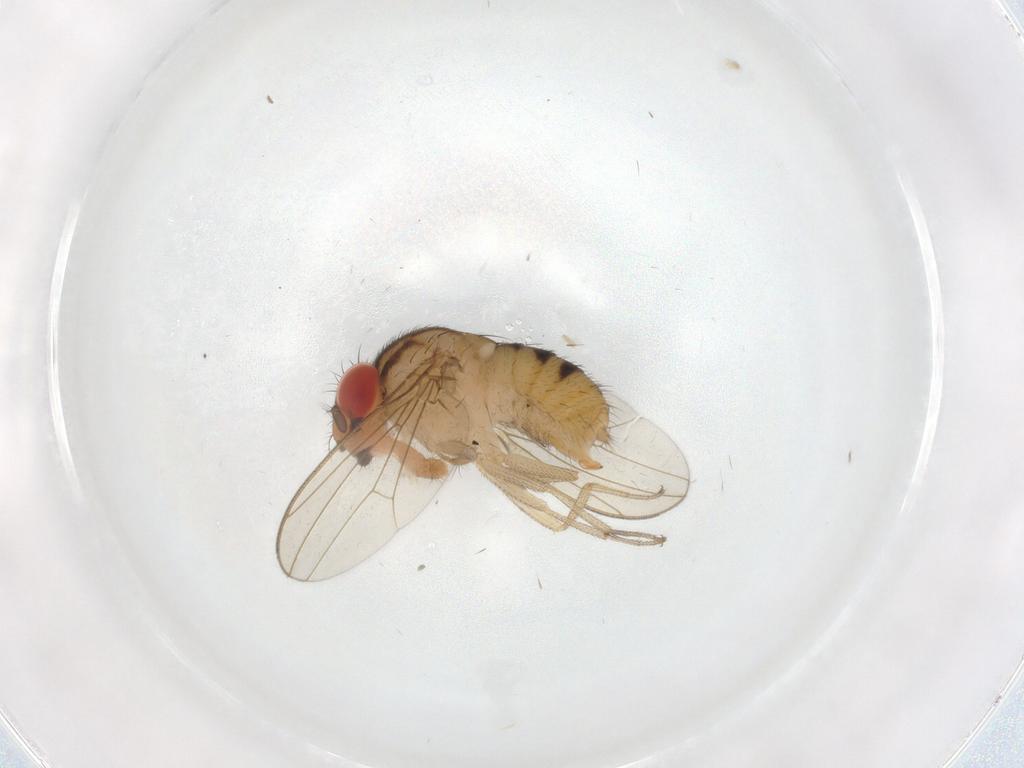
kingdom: Animalia
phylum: Arthropoda
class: Insecta
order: Diptera
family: Drosophilidae
